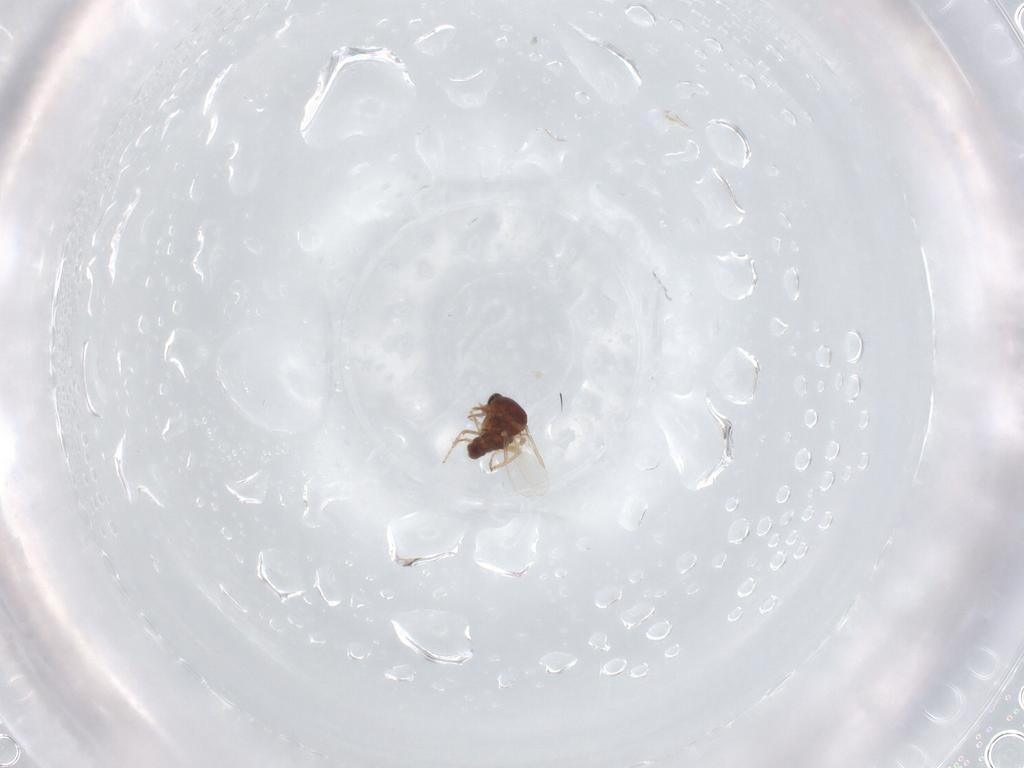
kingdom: Animalia
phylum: Arthropoda
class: Insecta
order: Diptera
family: Ceratopogonidae
